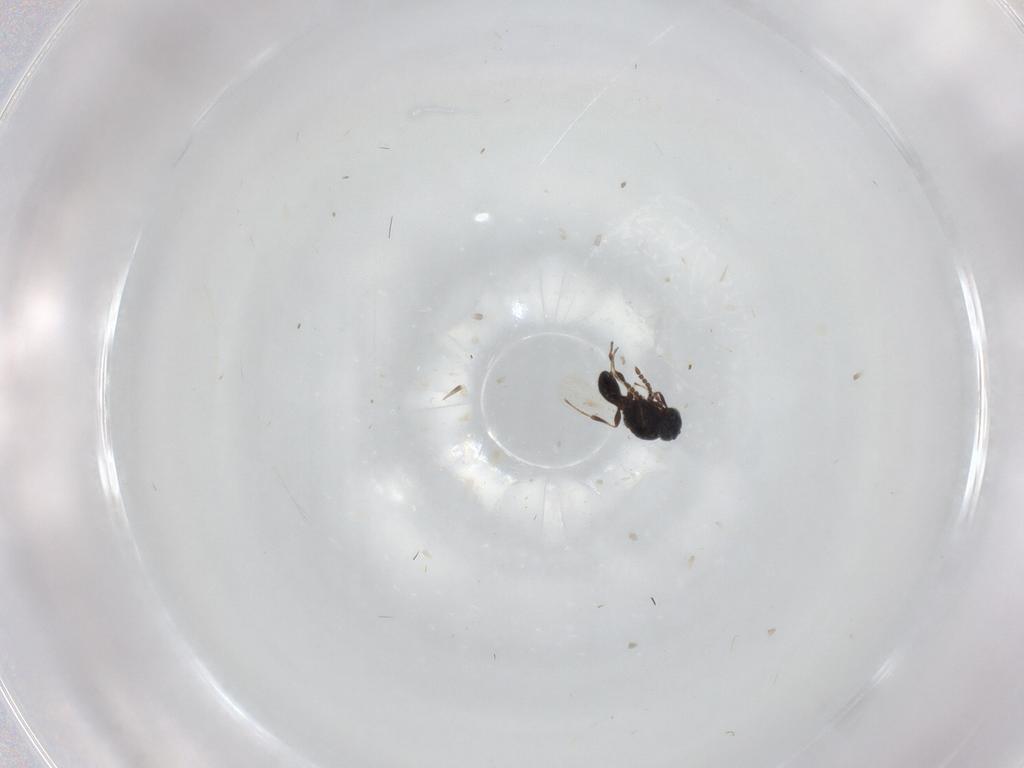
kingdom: Animalia
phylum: Arthropoda
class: Insecta
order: Hymenoptera
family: Platygastridae
